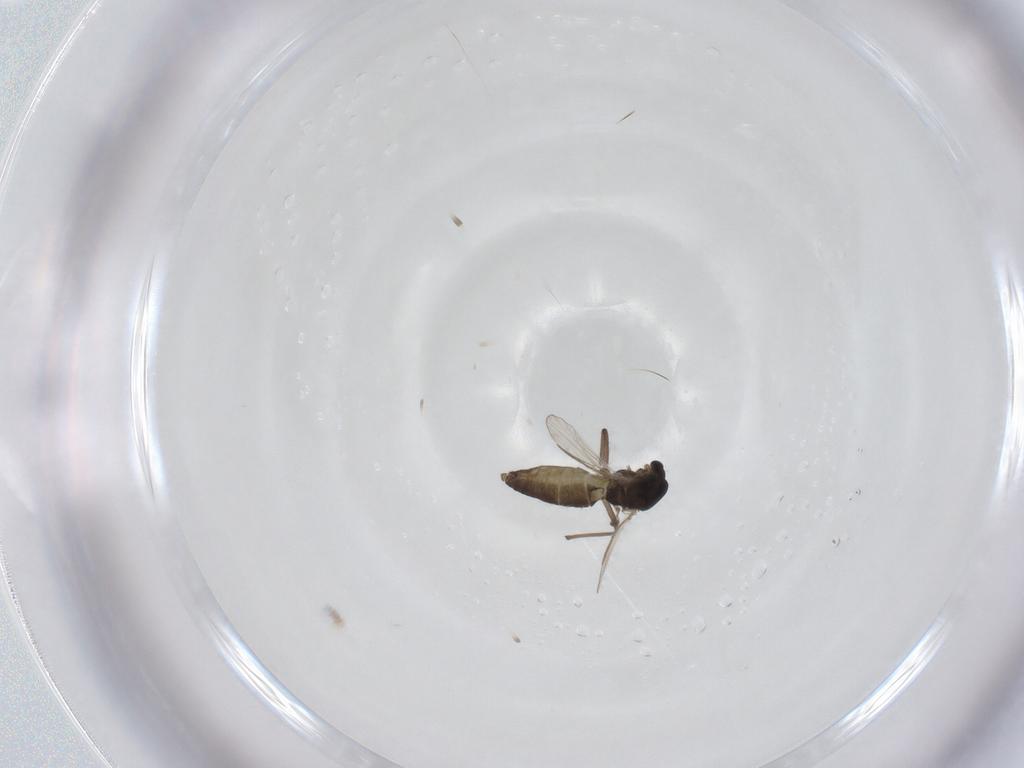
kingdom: Animalia
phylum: Arthropoda
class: Insecta
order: Diptera
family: Chironomidae
